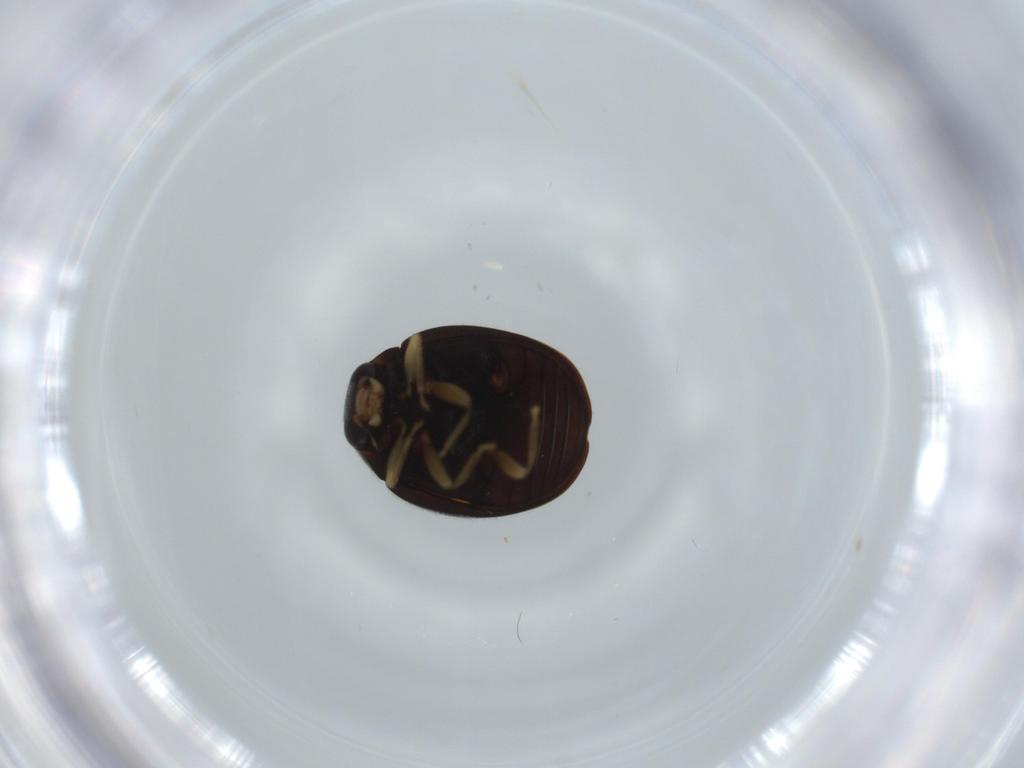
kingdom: Animalia
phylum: Arthropoda
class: Insecta
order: Coleoptera
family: Coccinellidae
